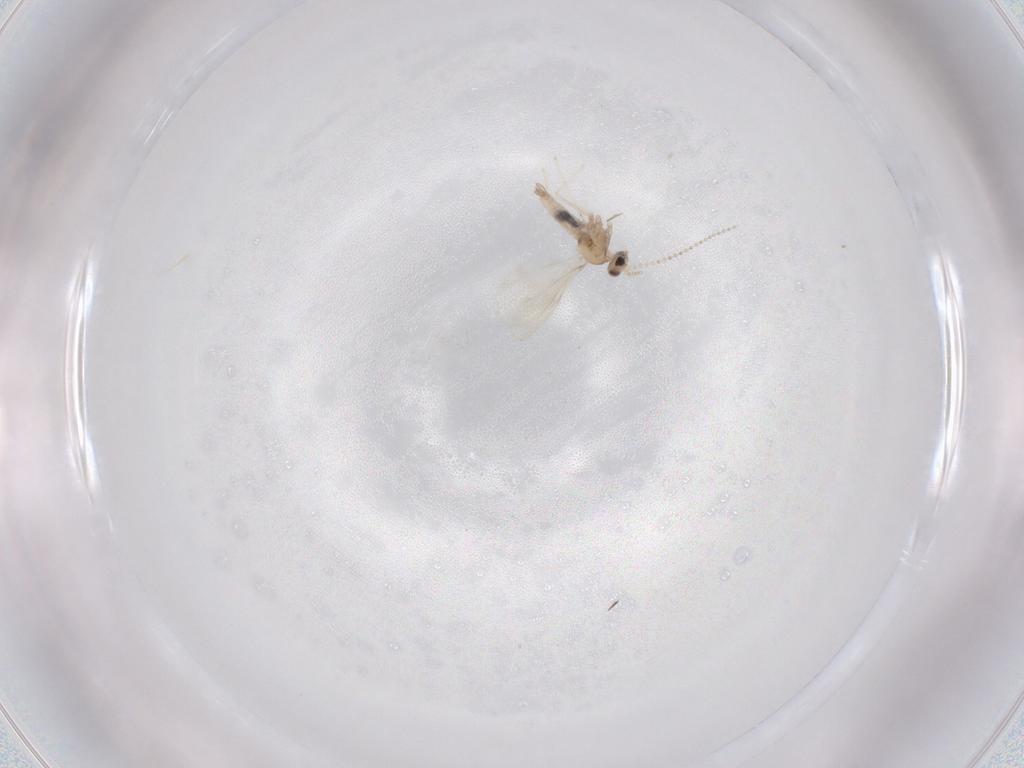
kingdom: Animalia
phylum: Arthropoda
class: Insecta
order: Diptera
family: Cecidomyiidae
